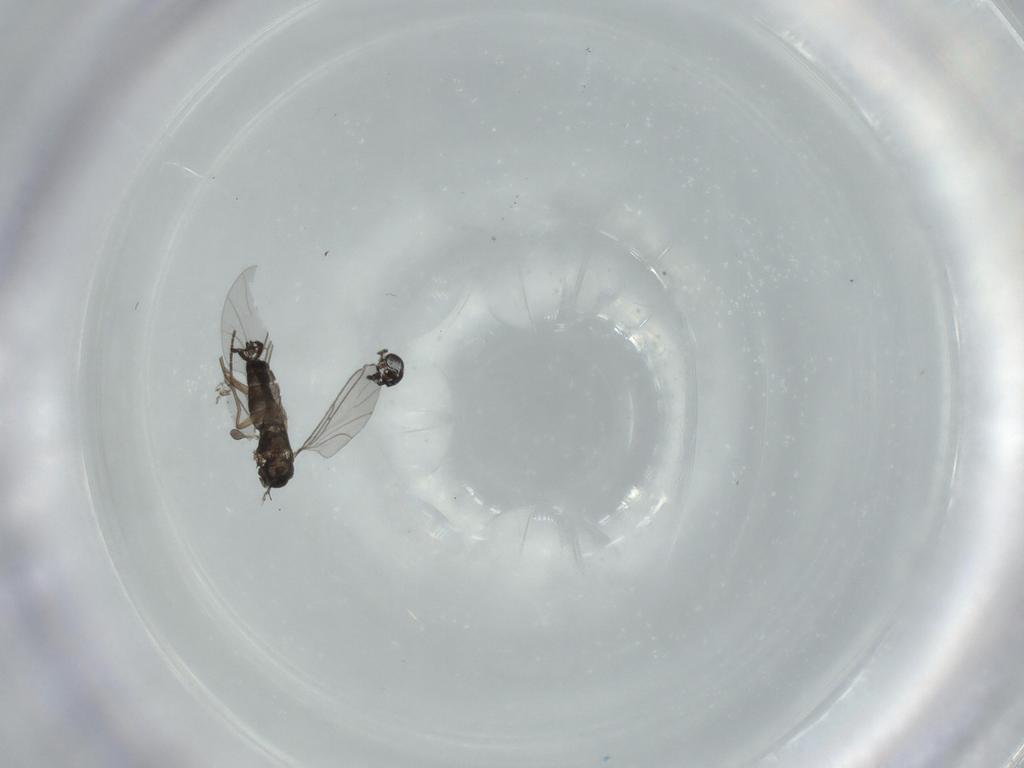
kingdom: Animalia
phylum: Arthropoda
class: Insecta
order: Diptera
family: Sciaridae
